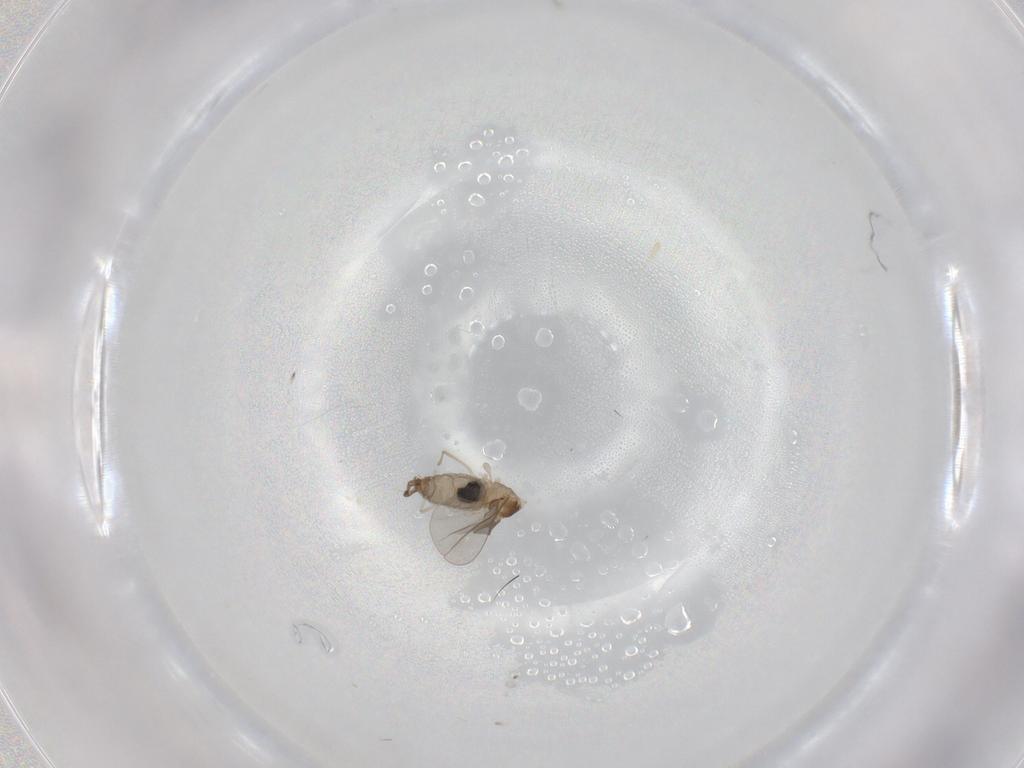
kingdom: Animalia
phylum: Arthropoda
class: Insecta
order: Diptera
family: Cecidomyiidae
